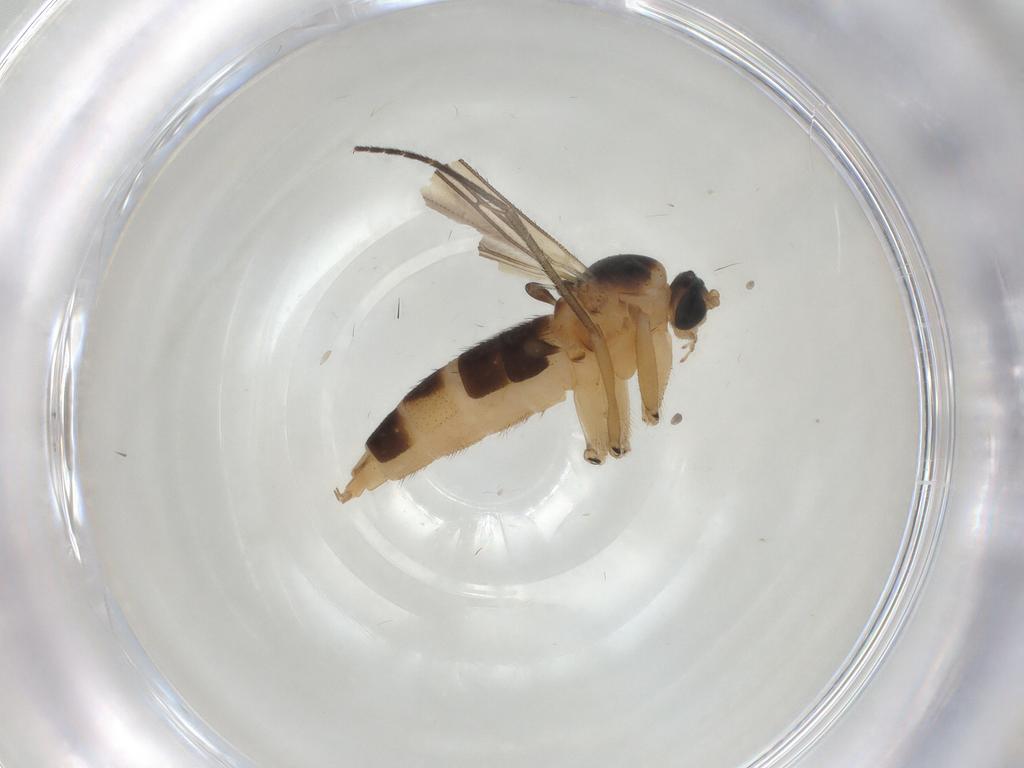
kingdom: Animalia
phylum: Arthropoda
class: Insecta
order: Diptera
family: Sciaridae
